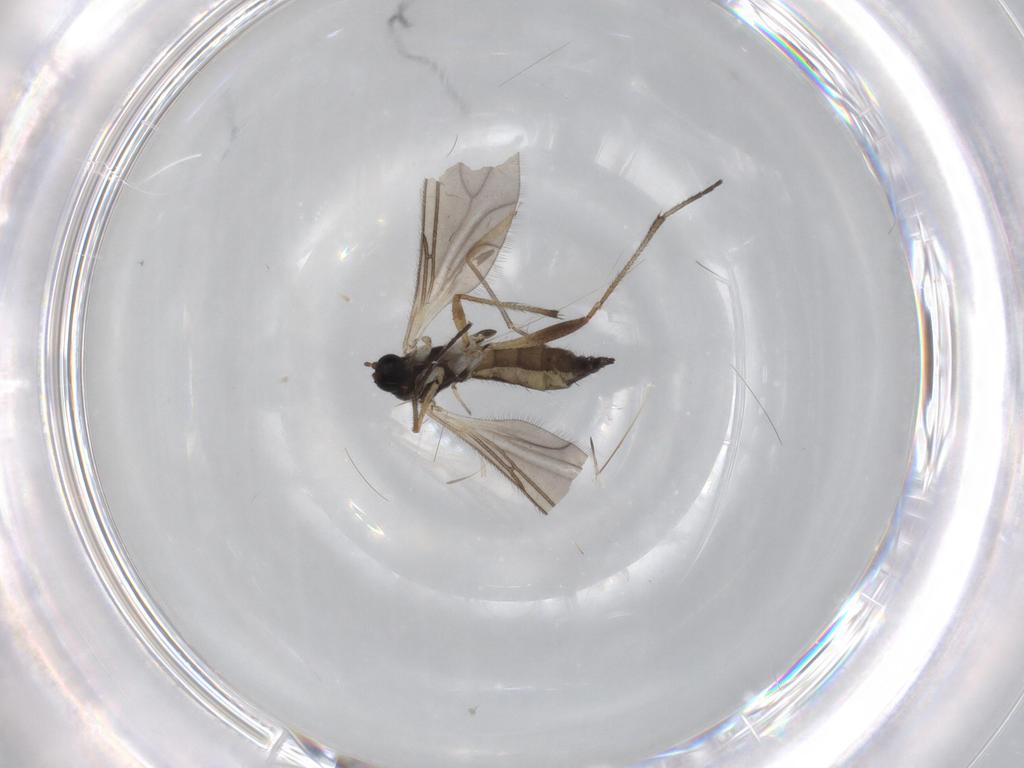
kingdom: Animalia
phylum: Arthropoda
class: Insecta
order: Diptera
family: Sciaridae
